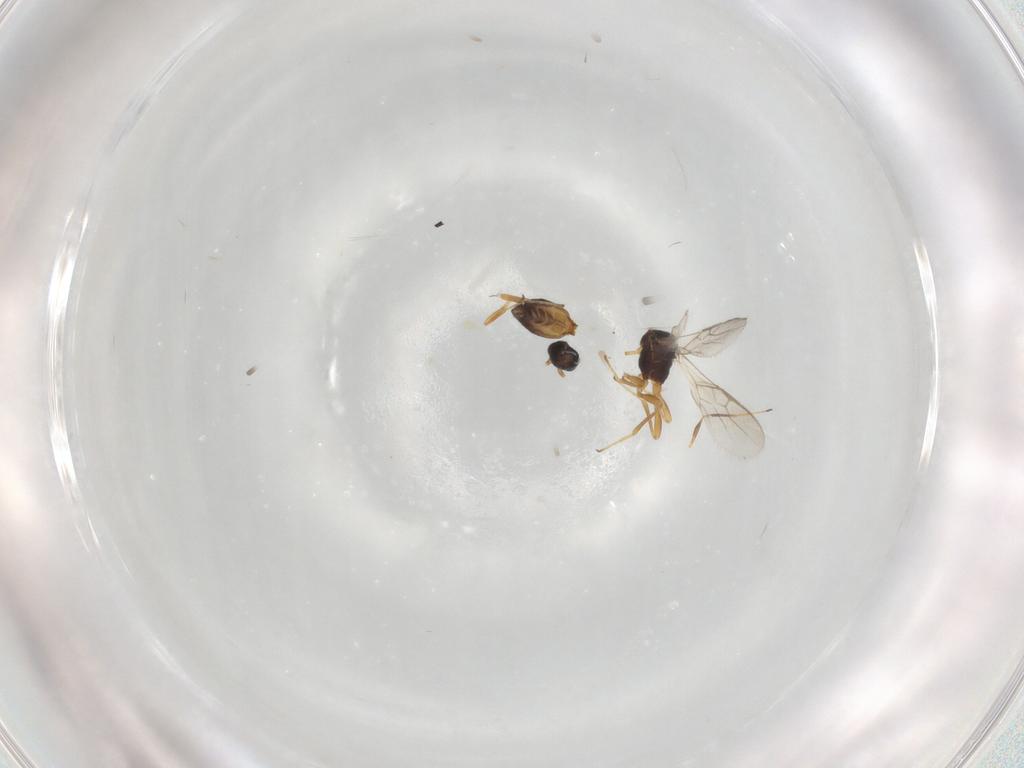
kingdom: Animalia
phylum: Arthropoda
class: Insecta
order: Hymenoptera
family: Braconidae
